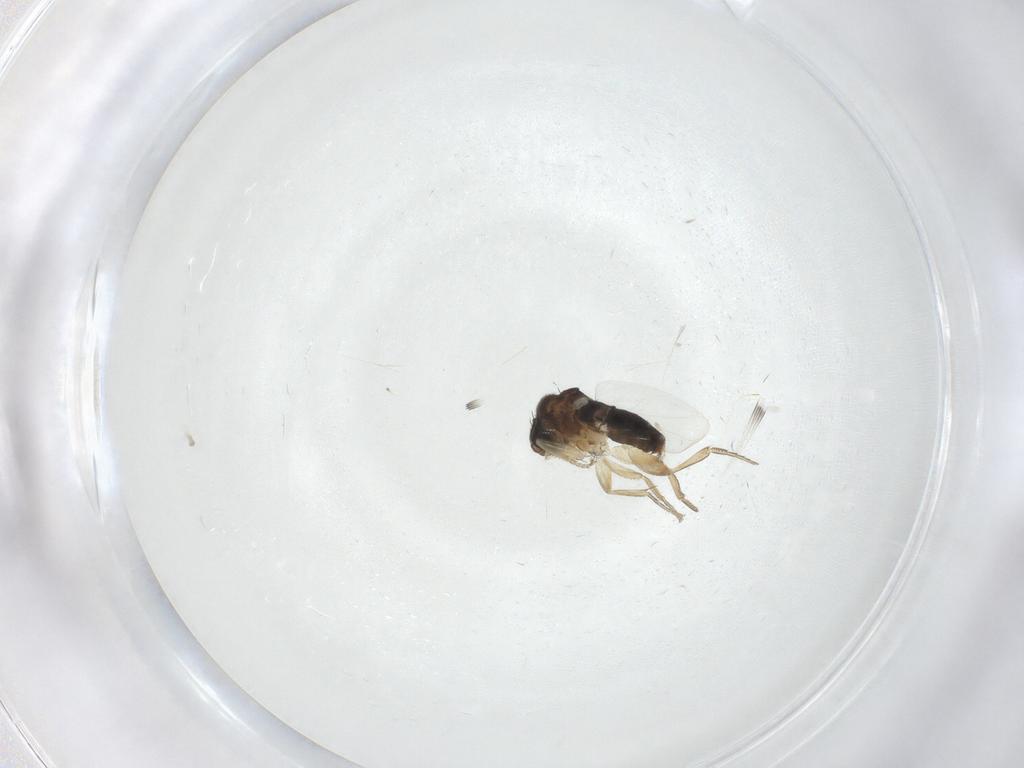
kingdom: Animalia
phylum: Arthropoda
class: Insecta
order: Diptera
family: Phoridae
